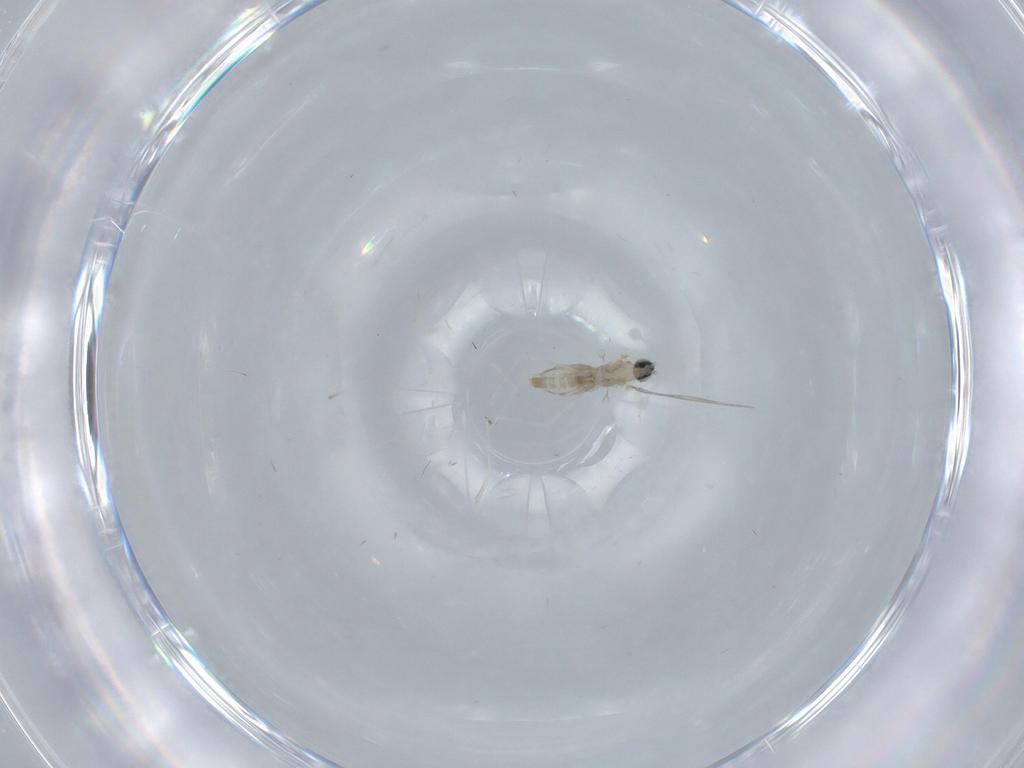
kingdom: Animalia
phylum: Arthropoda
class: Insecta
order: Diptera
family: Cecidomyiidae
